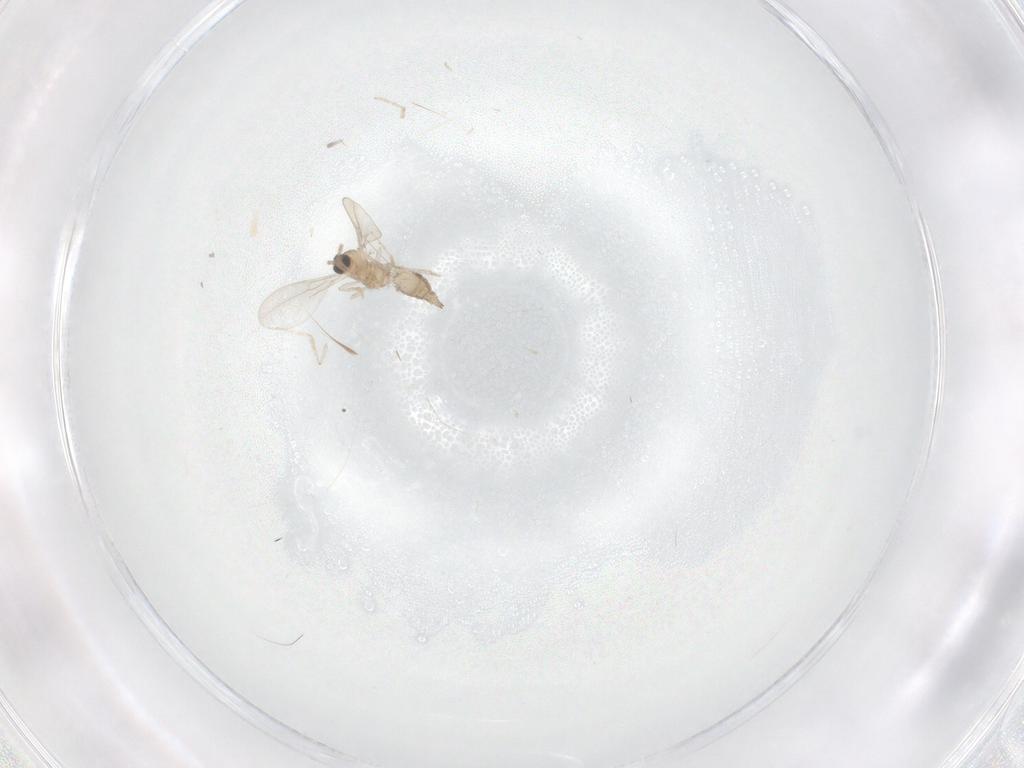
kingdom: Animalia
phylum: Arthropoda
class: Insecta
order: Diptera
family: Cecidomyiidae
